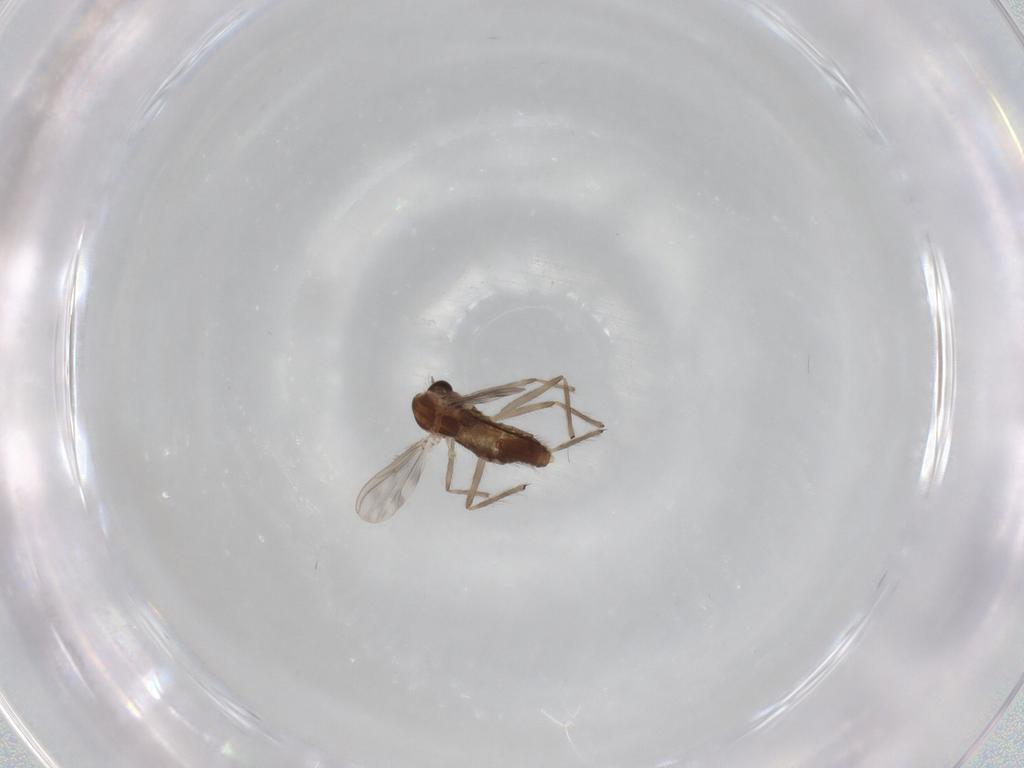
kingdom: Animalia
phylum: Arthropoda
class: Insecta
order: Diptera
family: Chironomidae
